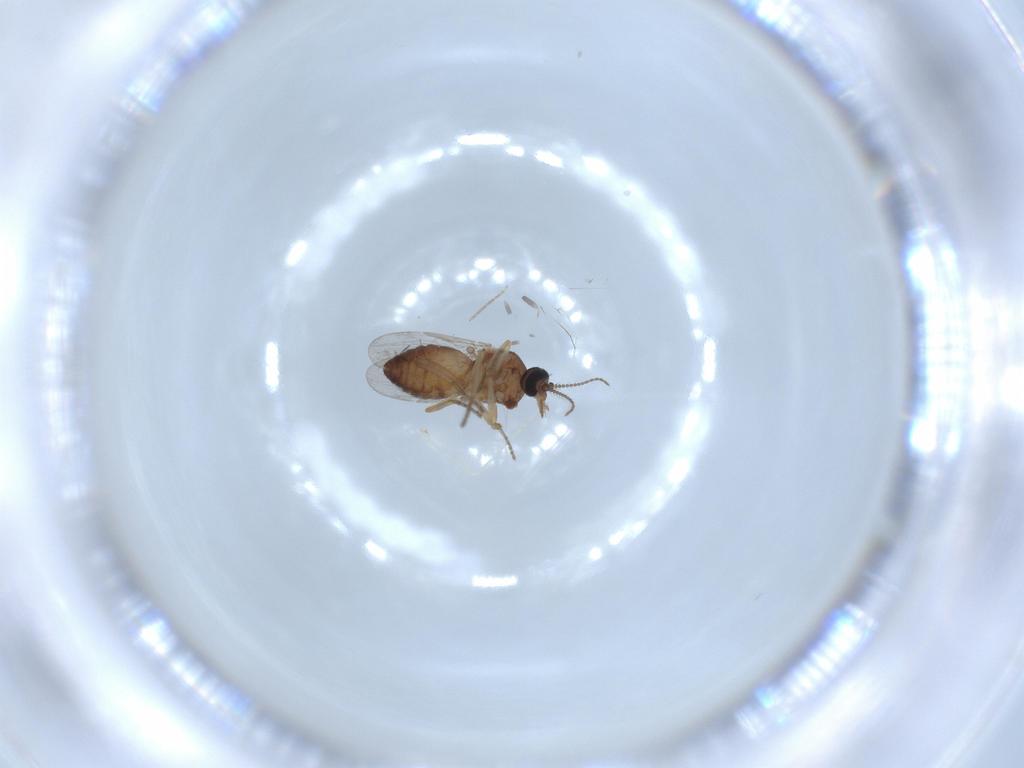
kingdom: Animalia
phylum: Arthropoda
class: Insecta
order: Diptera
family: Ceratopogonidae
